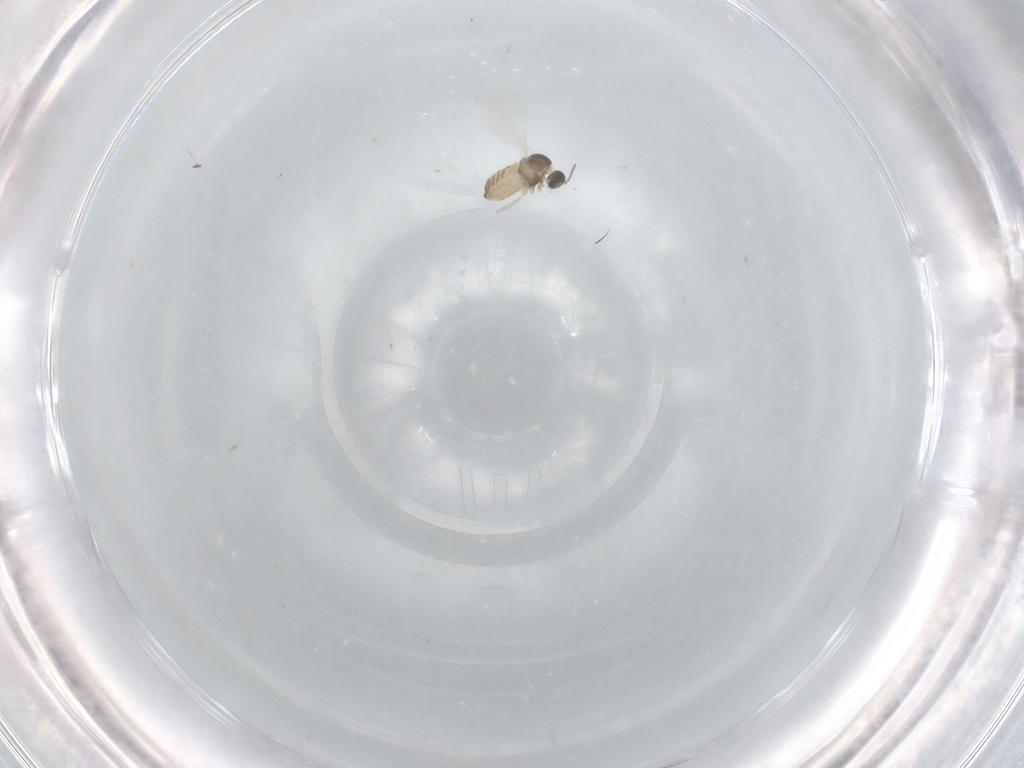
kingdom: Animalia
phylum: Arthropoda
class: Insecta
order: Diptera
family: Cecidomyiidae
